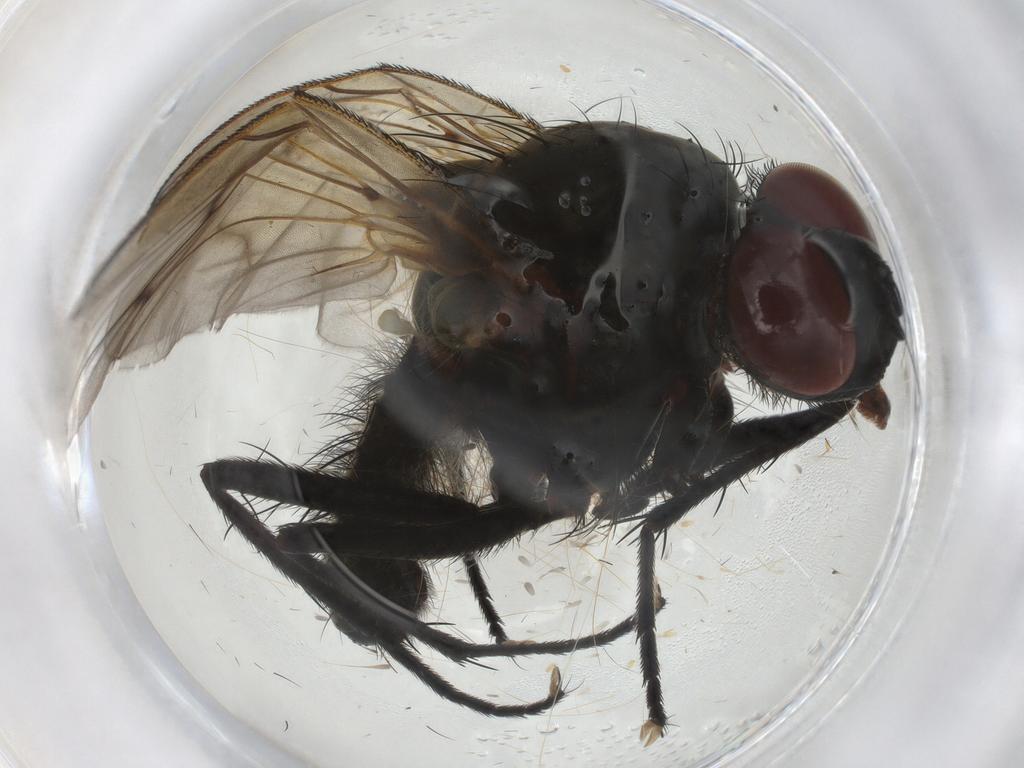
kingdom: Animalia
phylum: Arthropoda
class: Insecta
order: Diptera
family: Anthomyiidae
